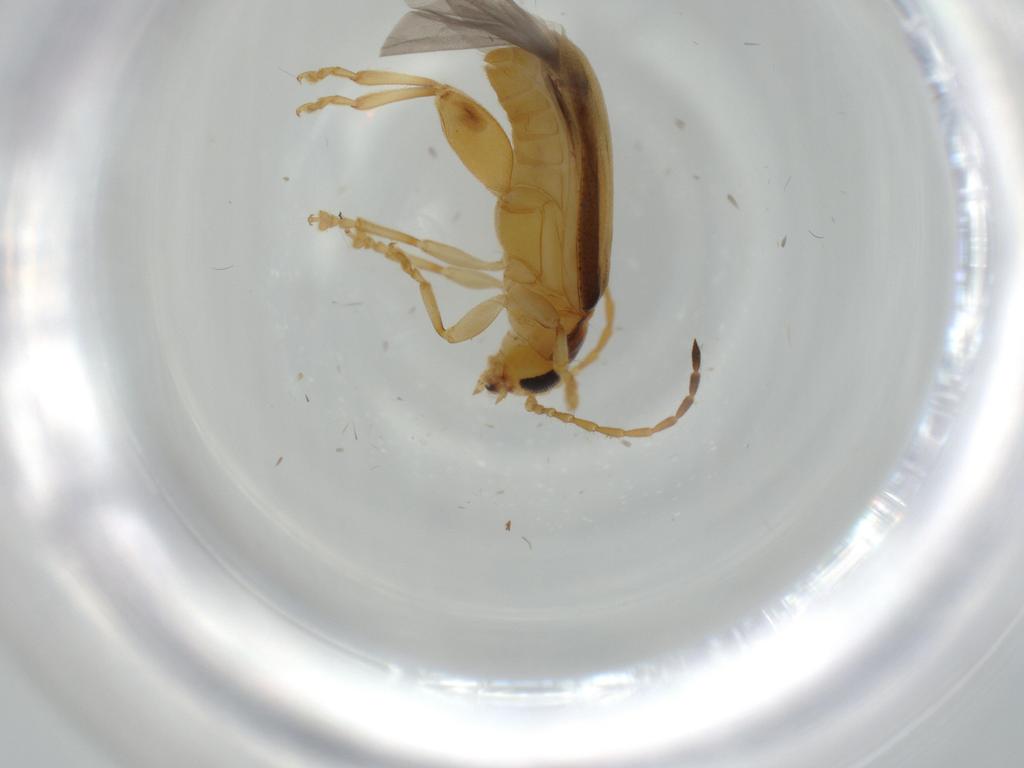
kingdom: Animalia
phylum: Arthropoda
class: Insecta
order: Coleoptera
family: Chrysomelidae
